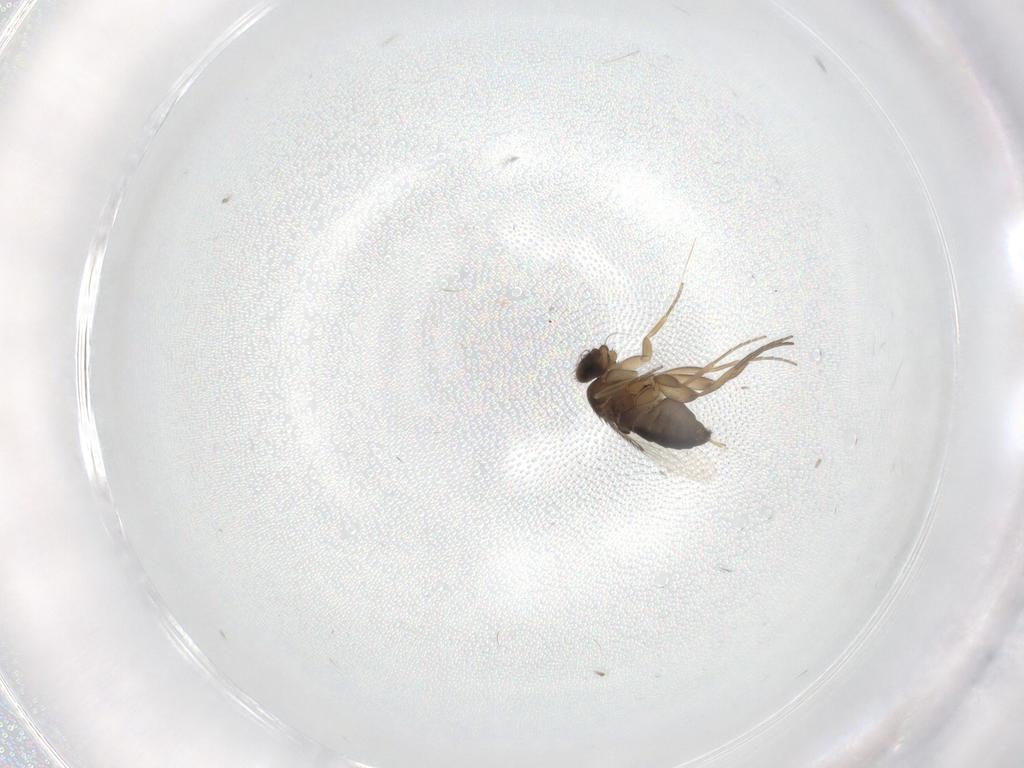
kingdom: Animalia
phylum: Arthropoda
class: Insecta
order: Diptera
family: Phoridae
